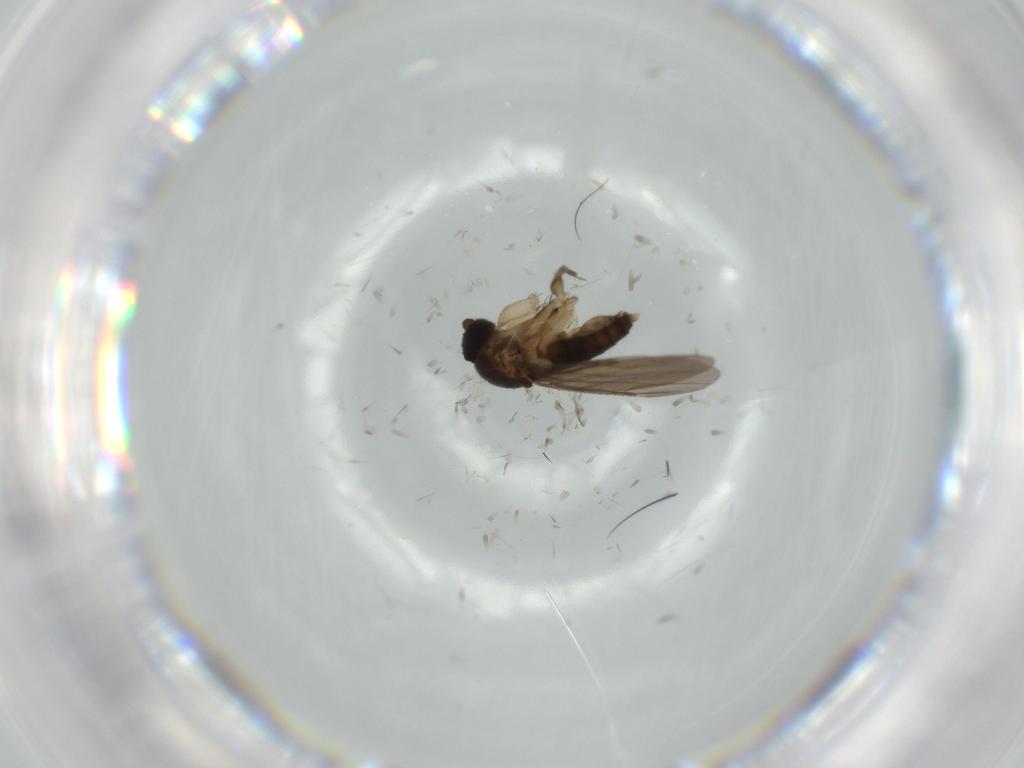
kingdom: Animalia
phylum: Arthropoda
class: Insecta
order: Diptera
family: Phoridae
